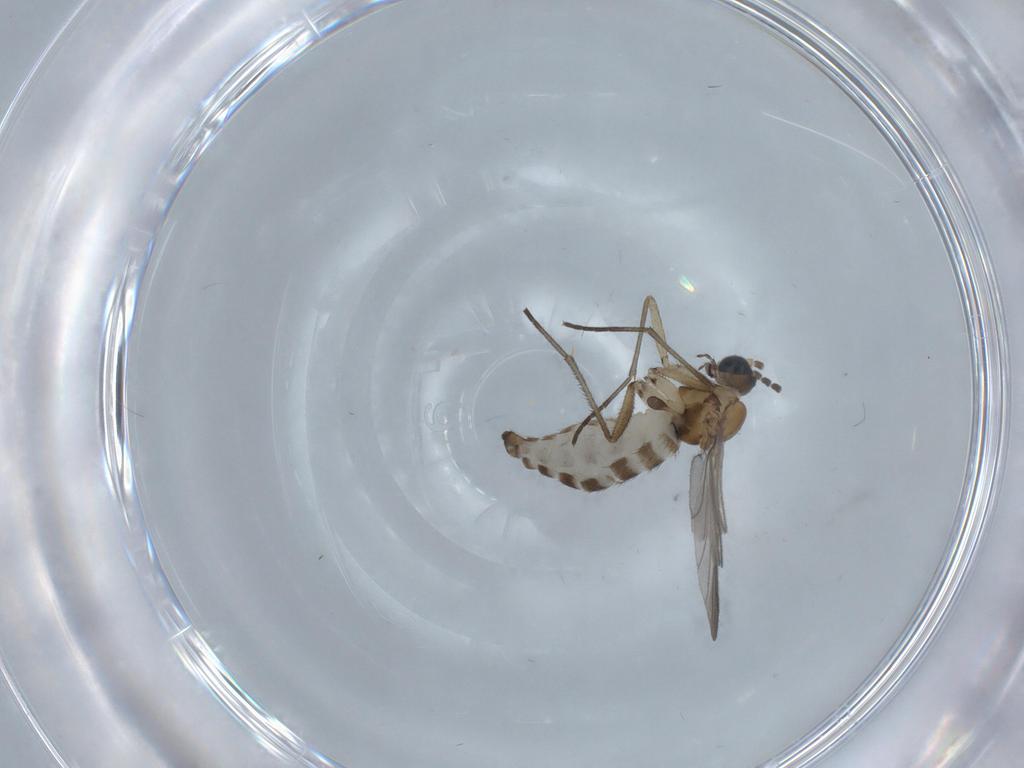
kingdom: Animalia
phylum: Arthropoda
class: Insecta
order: Diptera
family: Sciaridae
